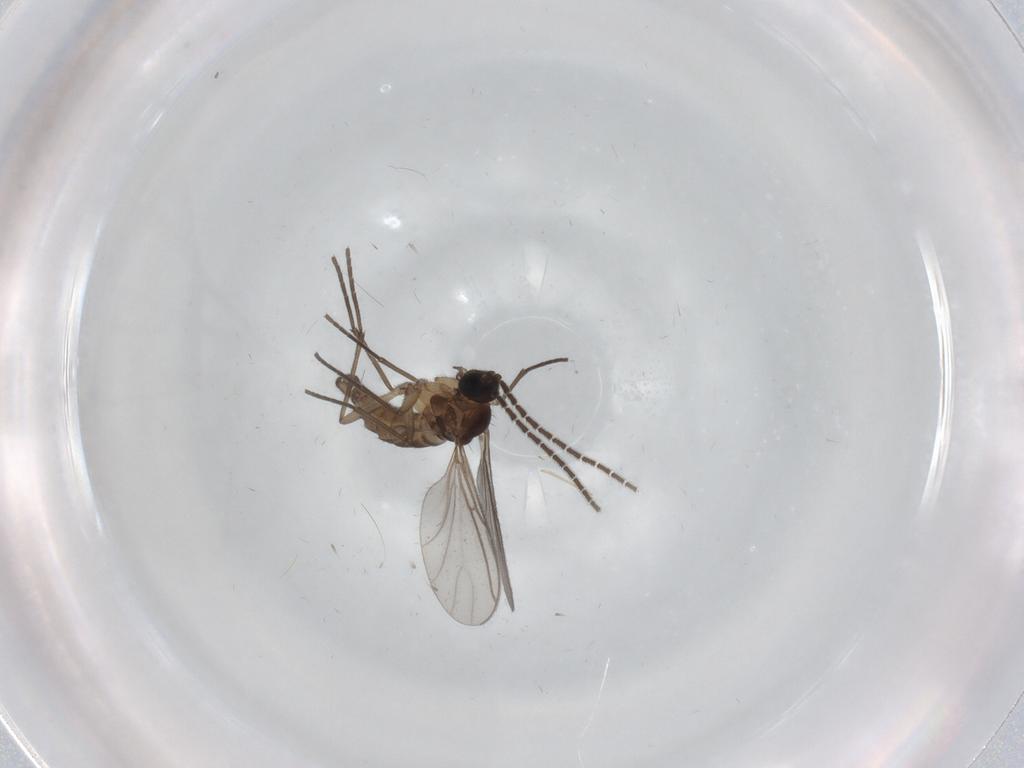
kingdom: Animalia
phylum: Arthropoda
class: Insecta
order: Diptera
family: Sciaridae
